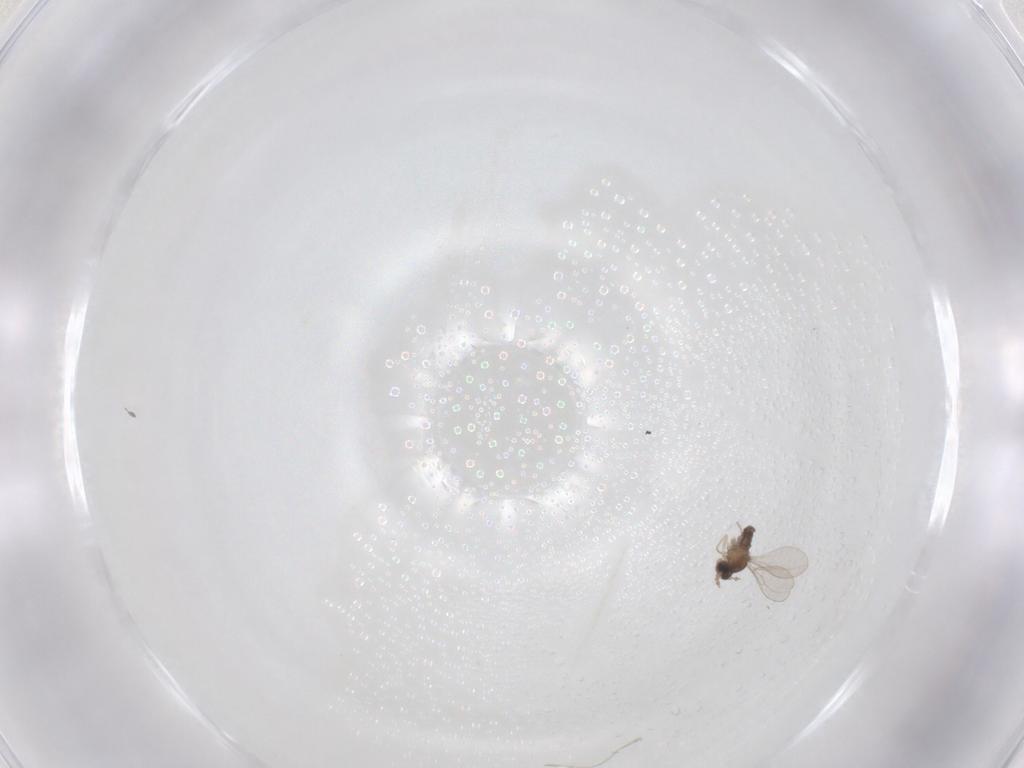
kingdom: Animalia
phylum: Arthropoda
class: Insecta
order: Diptera
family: Cecidomyiidae
